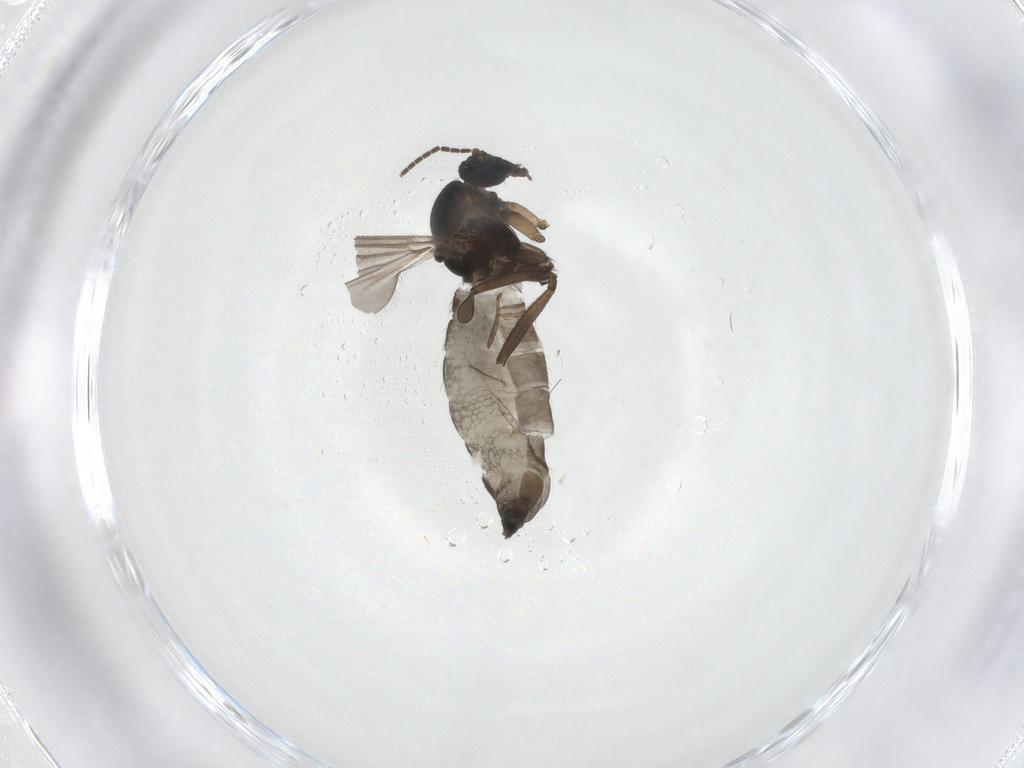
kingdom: Animalia
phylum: Arthropoda
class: Insecta
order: Diptera
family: Sciaridae
